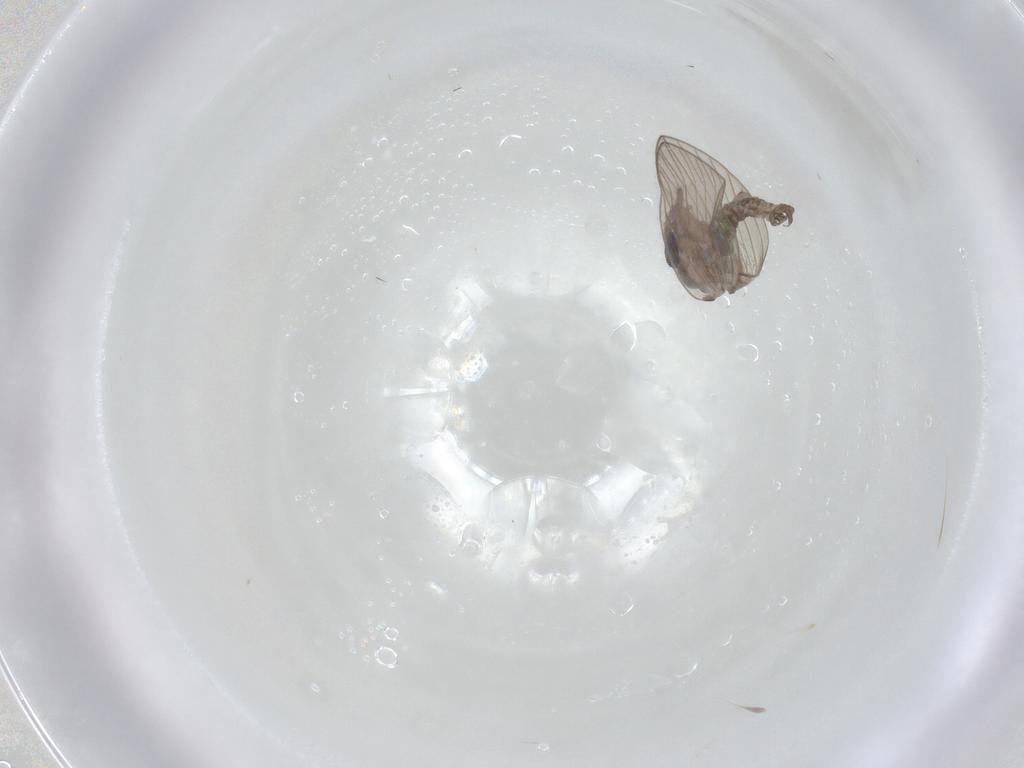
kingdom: Animalia
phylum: Arthropoda
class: Insecta
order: Diptera
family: Psychodidae
